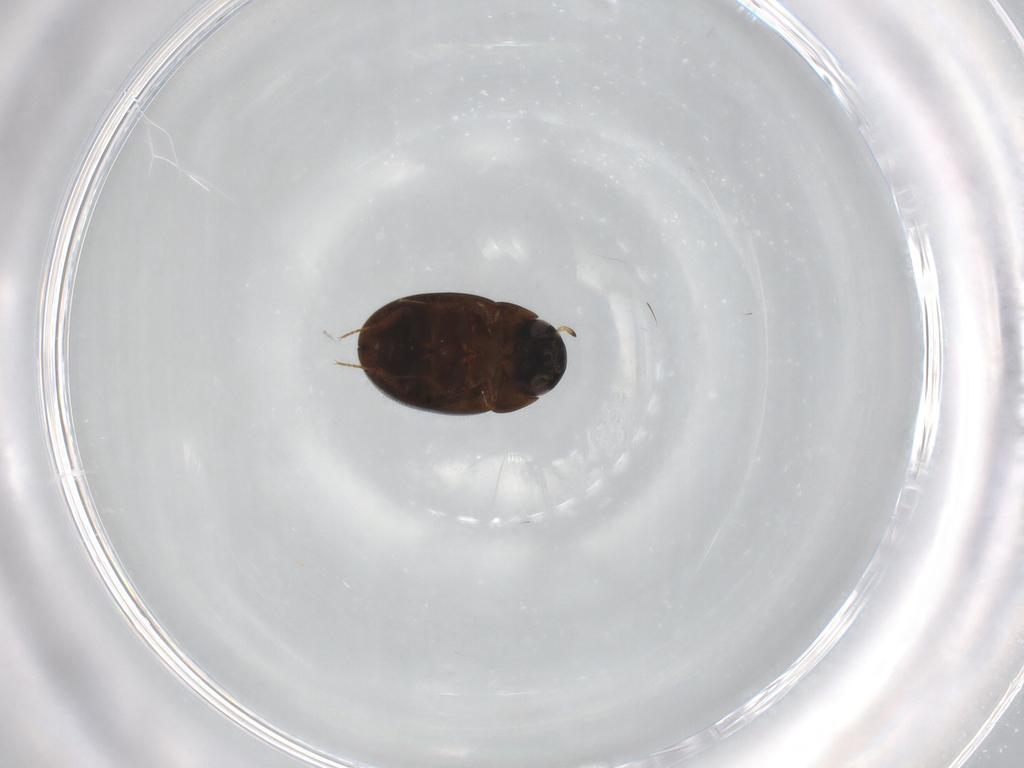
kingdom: Animalia
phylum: Arthropoda
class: Insecta
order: Coleoptera
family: Hydrophilidae
